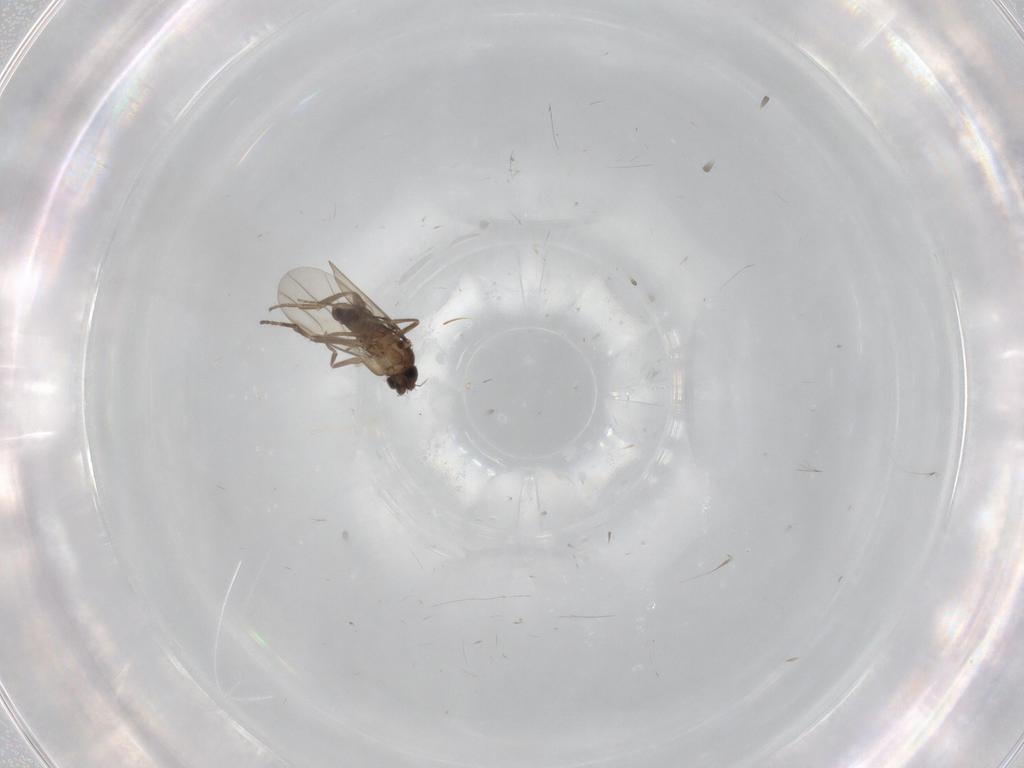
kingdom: Animalia
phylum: Arthropoda
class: Insecta
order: Diptera
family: Phoridae
